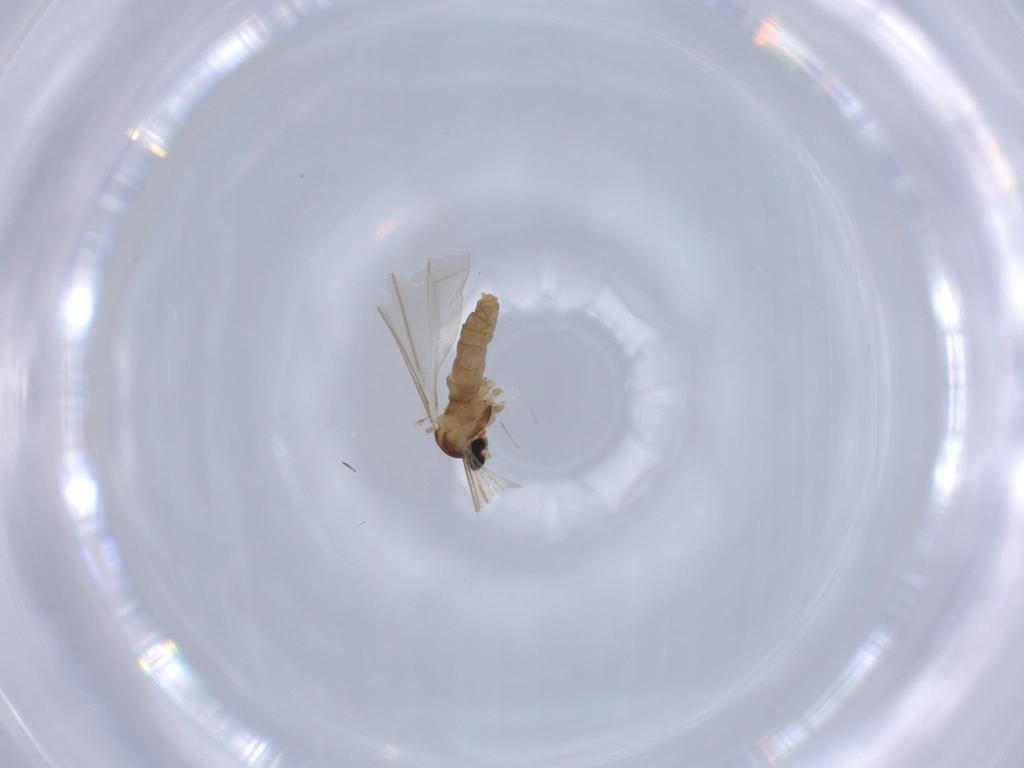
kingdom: Animalia
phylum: Arthropoda
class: Insecta
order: Diptera
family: Cecidomyiidae
